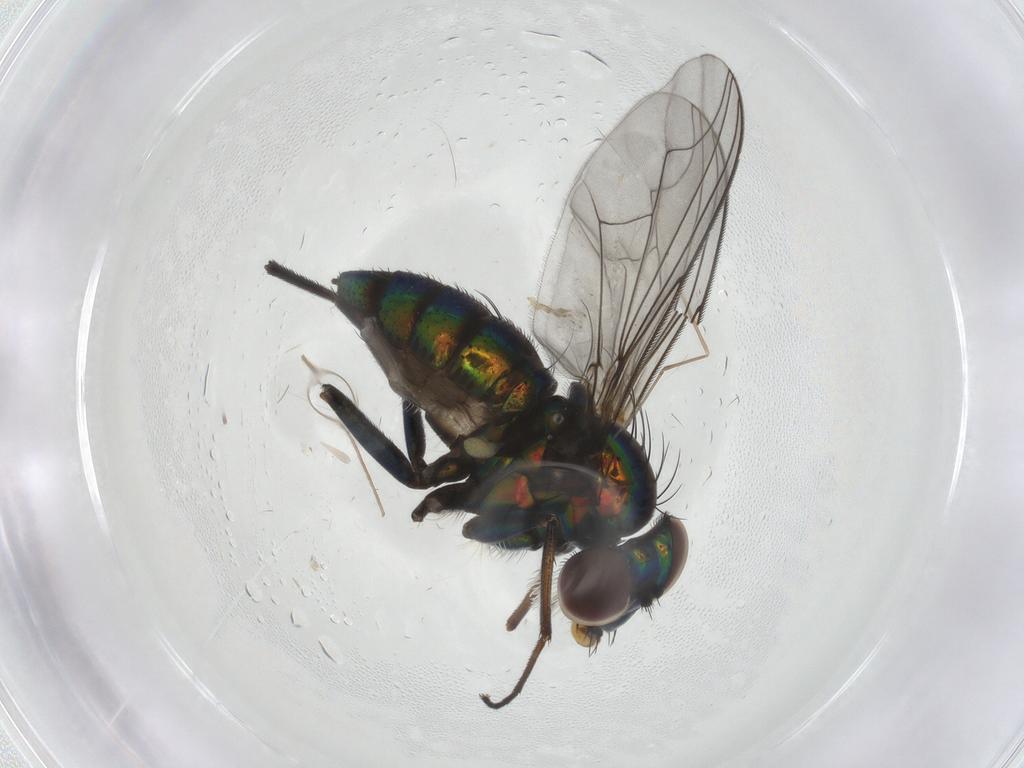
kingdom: Animalia
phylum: Arthropoda
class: Insecta
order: Diptera
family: Dolichopodidae
